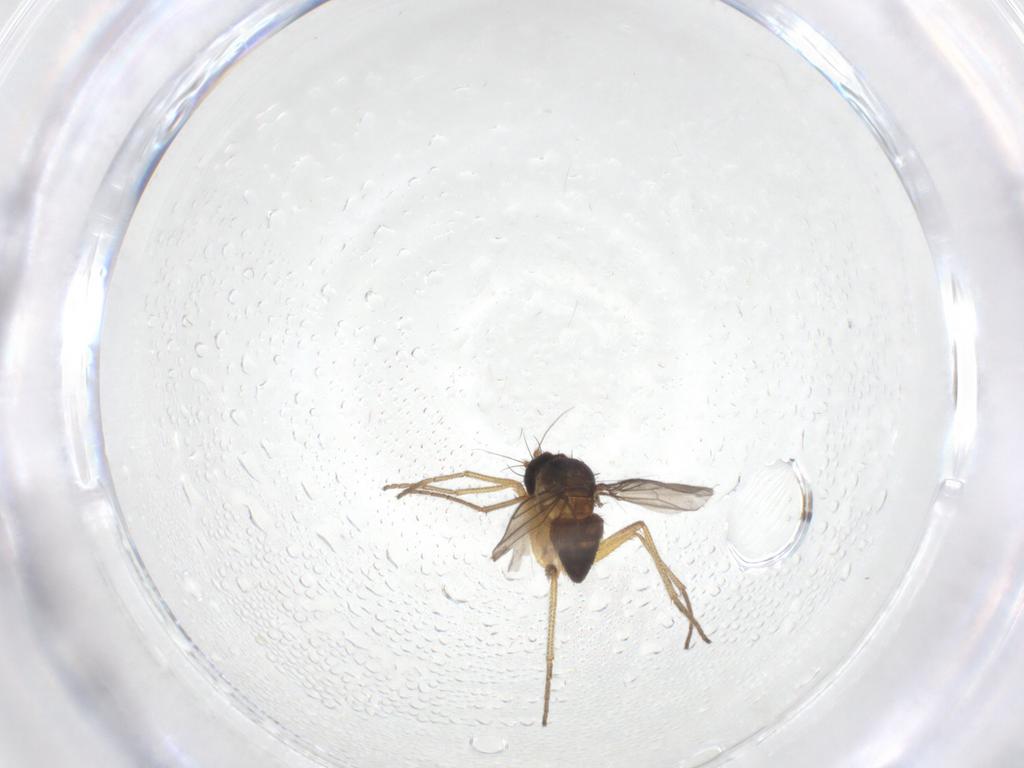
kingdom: Animalia
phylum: Arthropoda
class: Insecta
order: Diptera
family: Dolichopodidae
